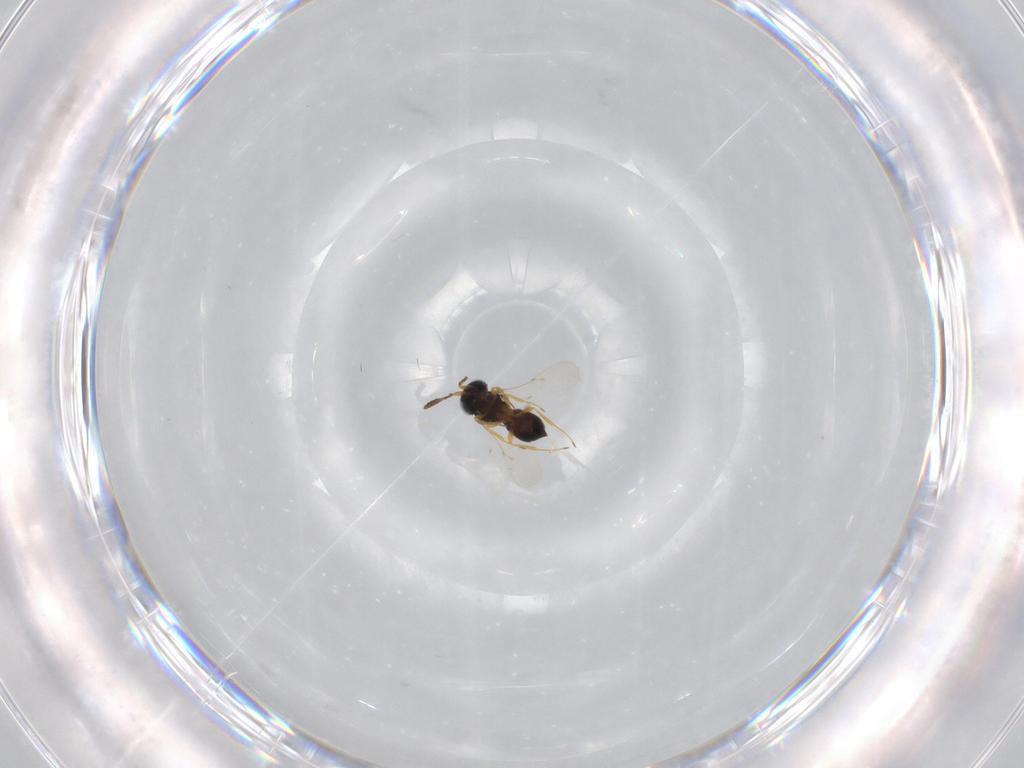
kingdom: Animalia
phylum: Arthropoda
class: Insecta
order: Hymenoptera
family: Scelionidae
